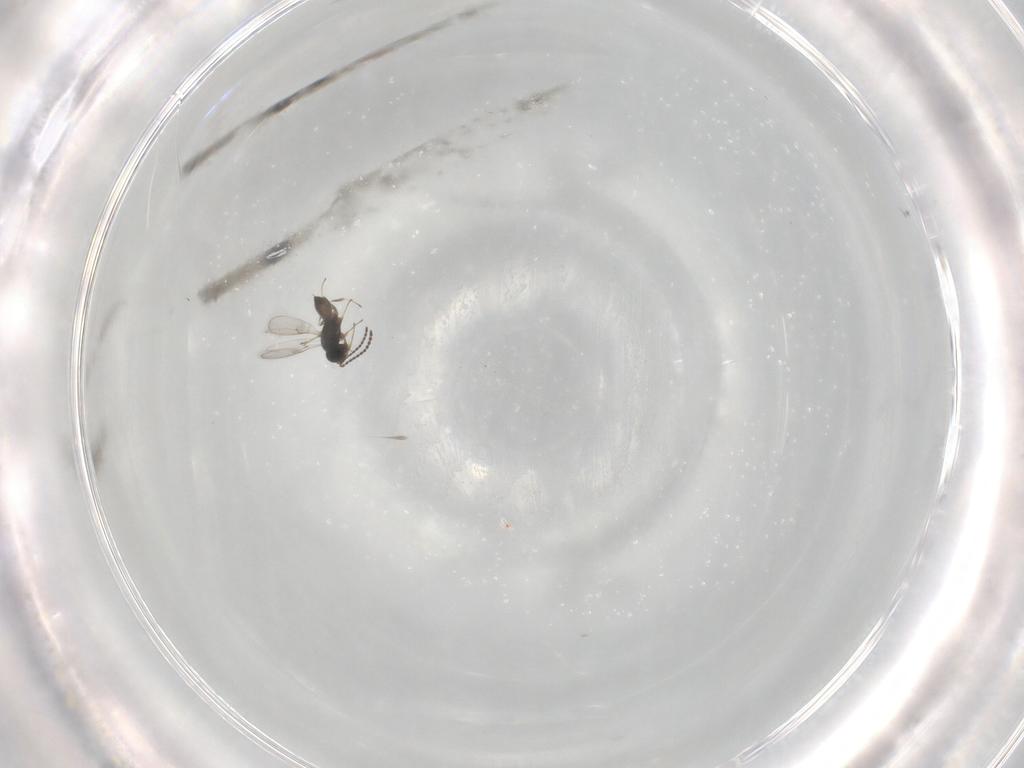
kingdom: Animalia
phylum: Arthropoda
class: Insecta
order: Hymenoptera
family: Scelionidae
